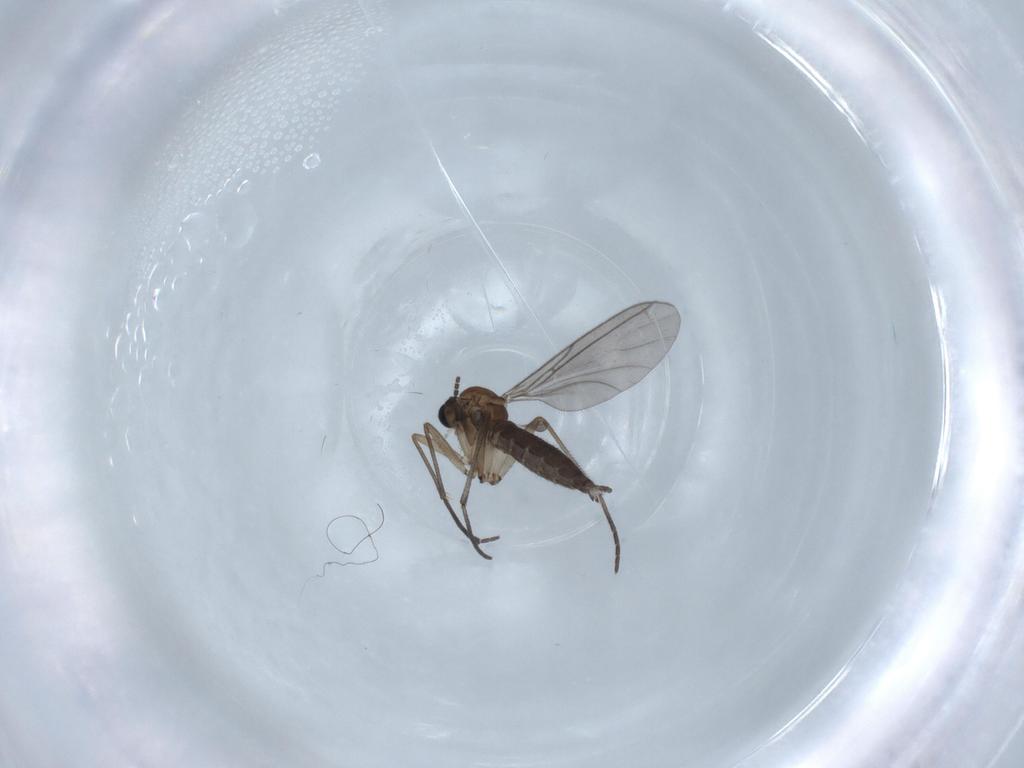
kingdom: Animalia
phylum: Arthropoda
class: Insecta
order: Diptera
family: Sciaridae
